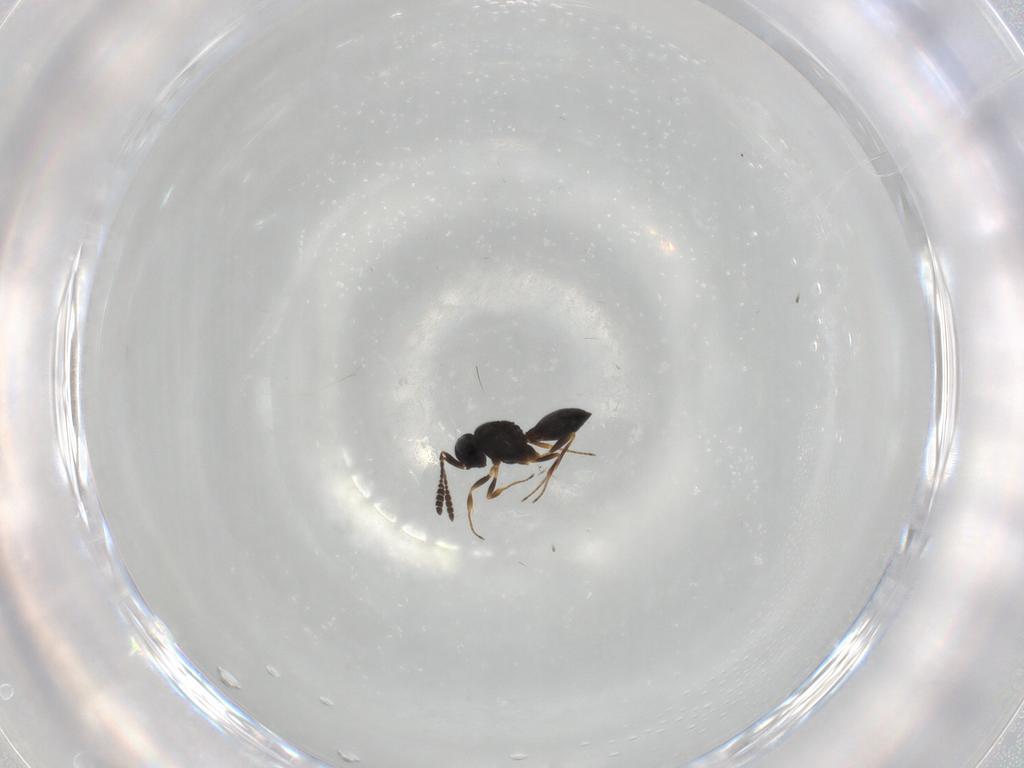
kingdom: Animalia
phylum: Arthropoda
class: Insecta
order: Hymenoptera
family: Scelionidae
